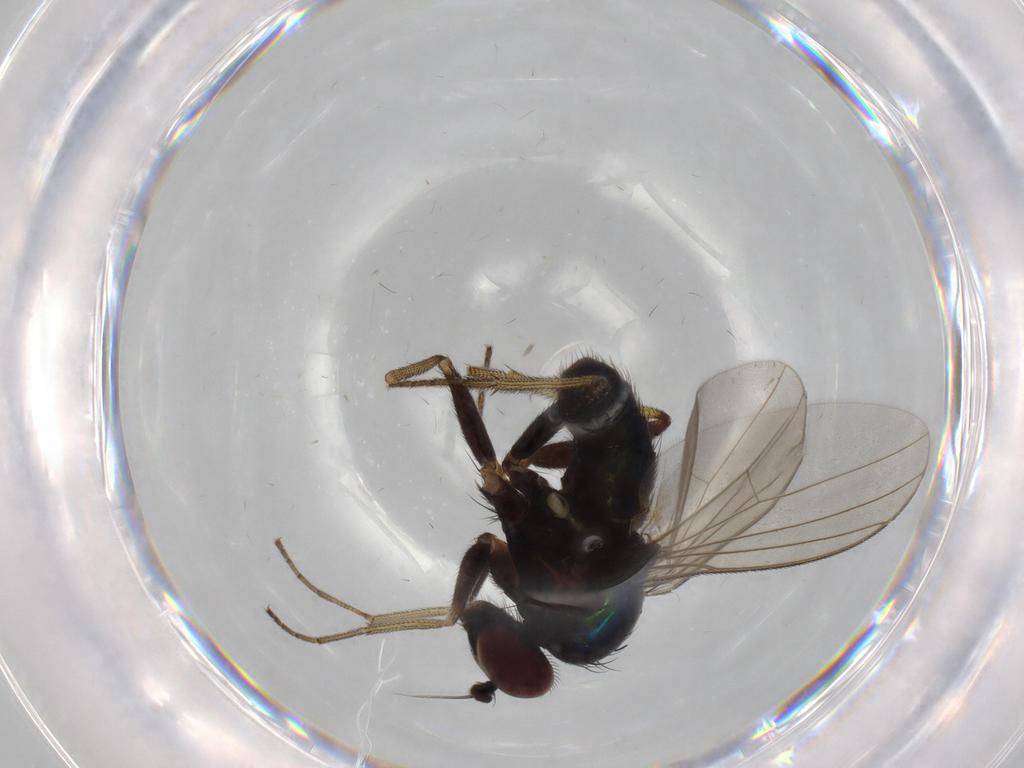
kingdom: Animalia
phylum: Arthropoda
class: Insecta
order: Diptera
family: Dolichopodidae
